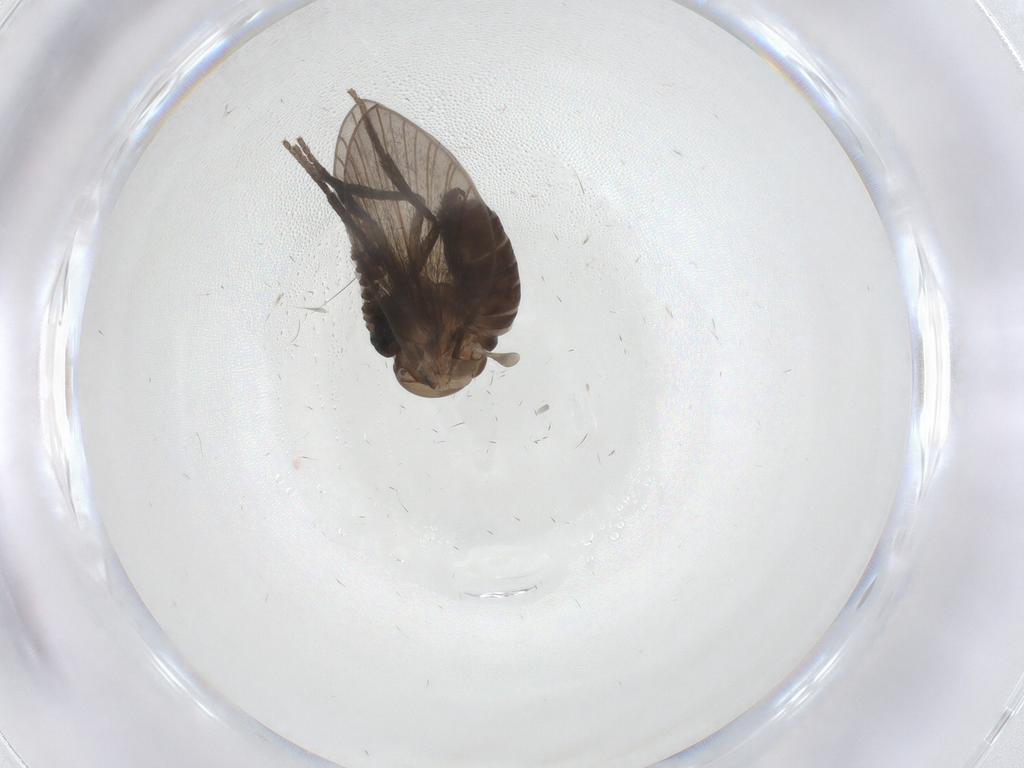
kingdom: Animalia
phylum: Arthropoda
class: Insecta
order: Diptera
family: Psychodidae
